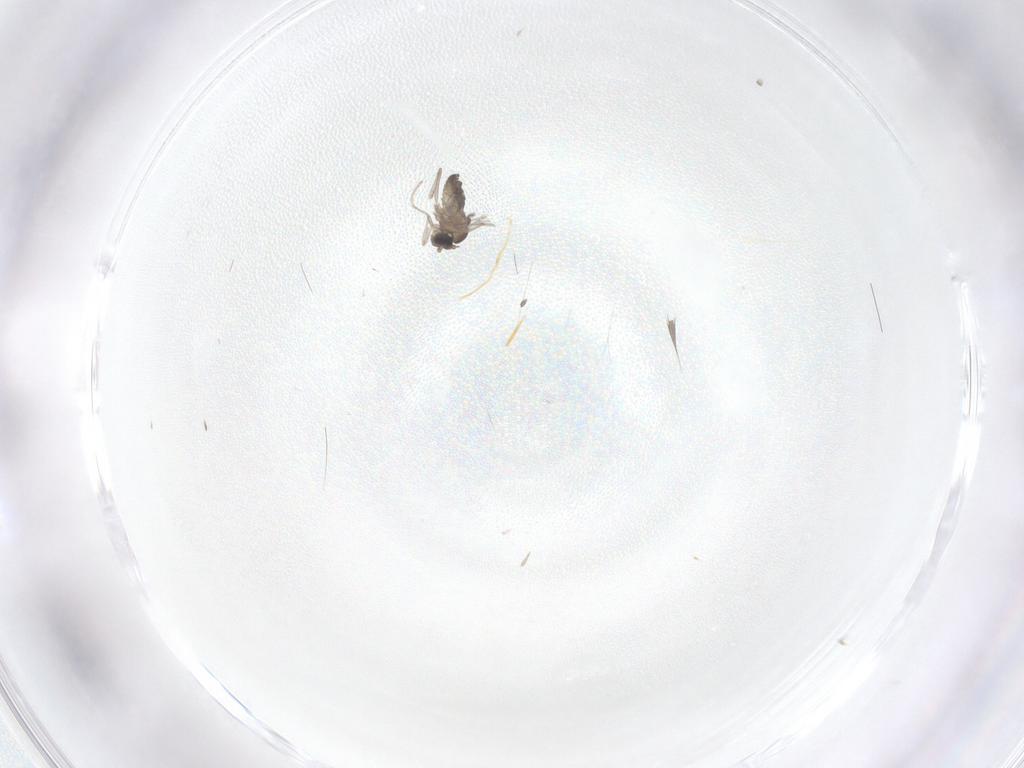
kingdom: Animalia
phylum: Arthropoda
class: Insecta
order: Diptera
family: Cecidomyiidae
